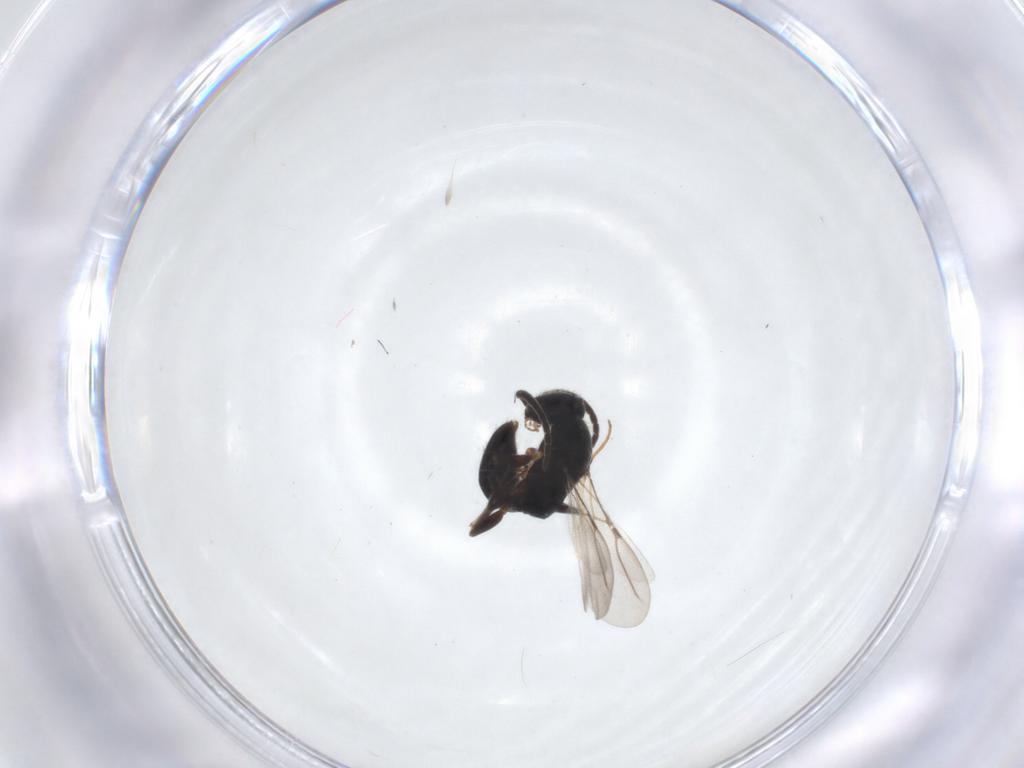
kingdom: Animalia
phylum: Arthropoda
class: Insecta
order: Hymenoptera
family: Bethylidae
